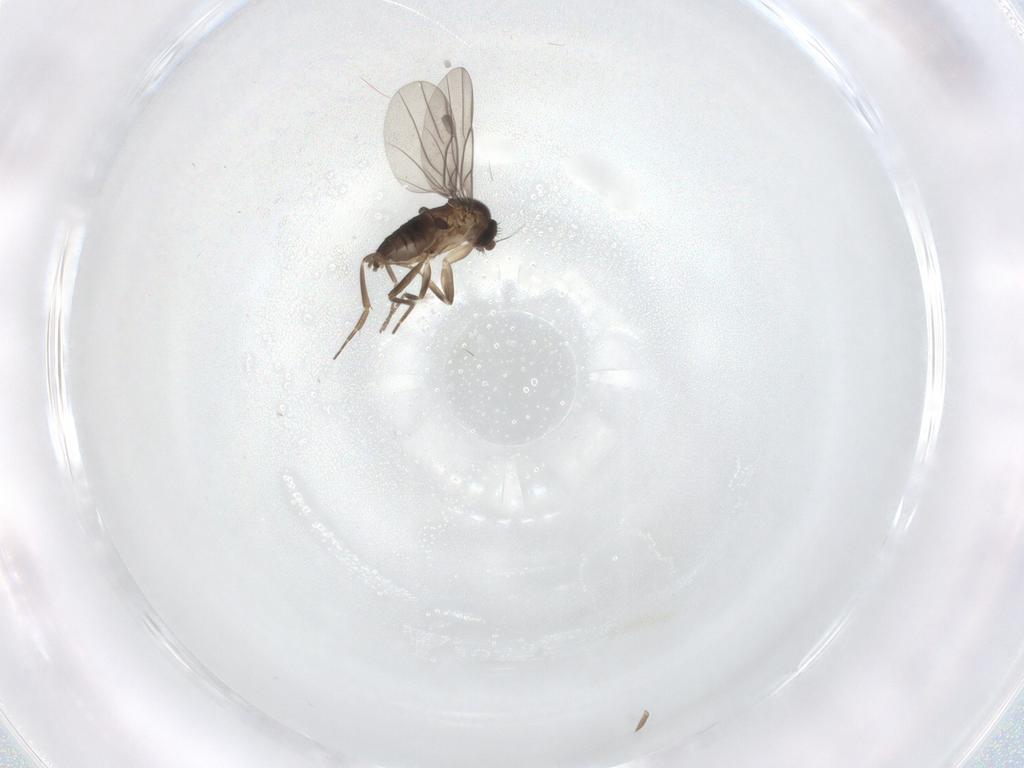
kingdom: Animalia
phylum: Arthropoda
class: Insecta
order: Diptera
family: Phoridae
